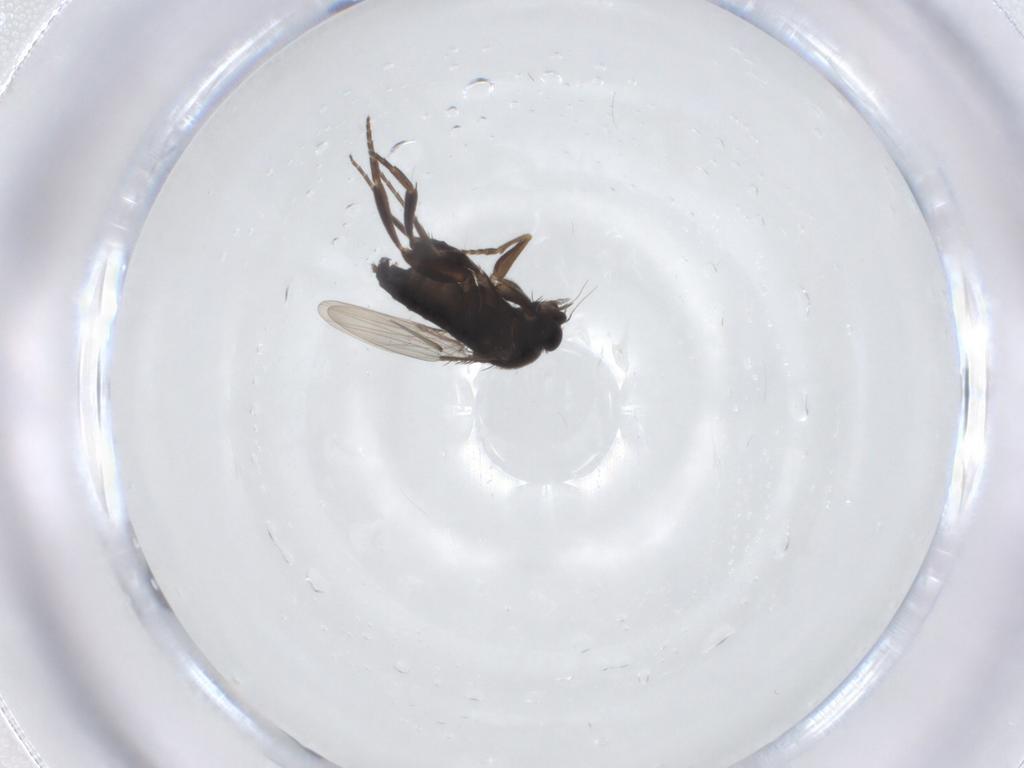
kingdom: Animalia
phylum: Arthropoda
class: Insecta
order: Diptera
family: Phoridae
